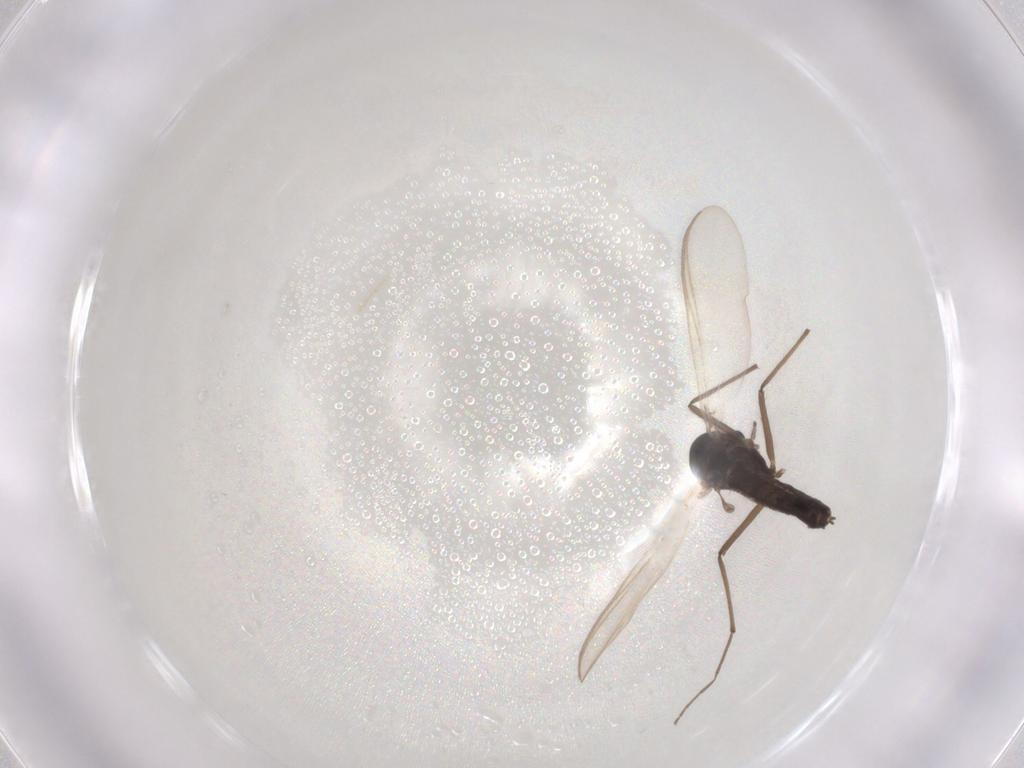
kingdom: Animalia
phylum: Arthropoda
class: Insecta
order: Diptera
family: Chironomidae
